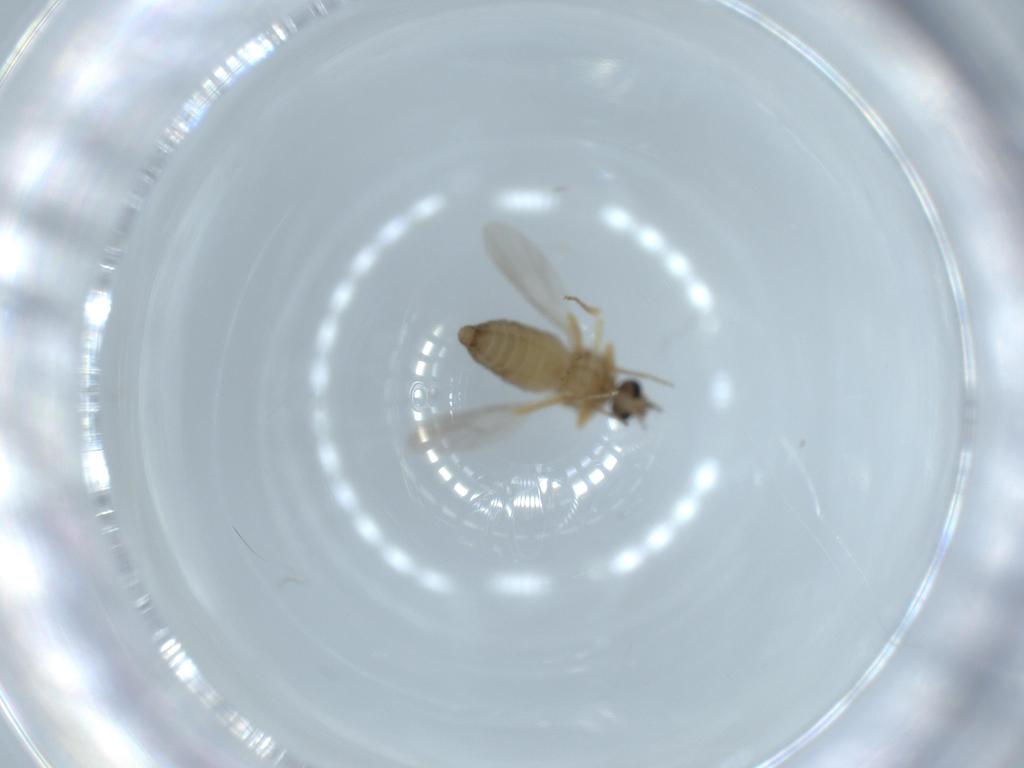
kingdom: Animalia
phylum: Arthropoda
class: Insecta
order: Diptera
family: Ceratopogonidae
